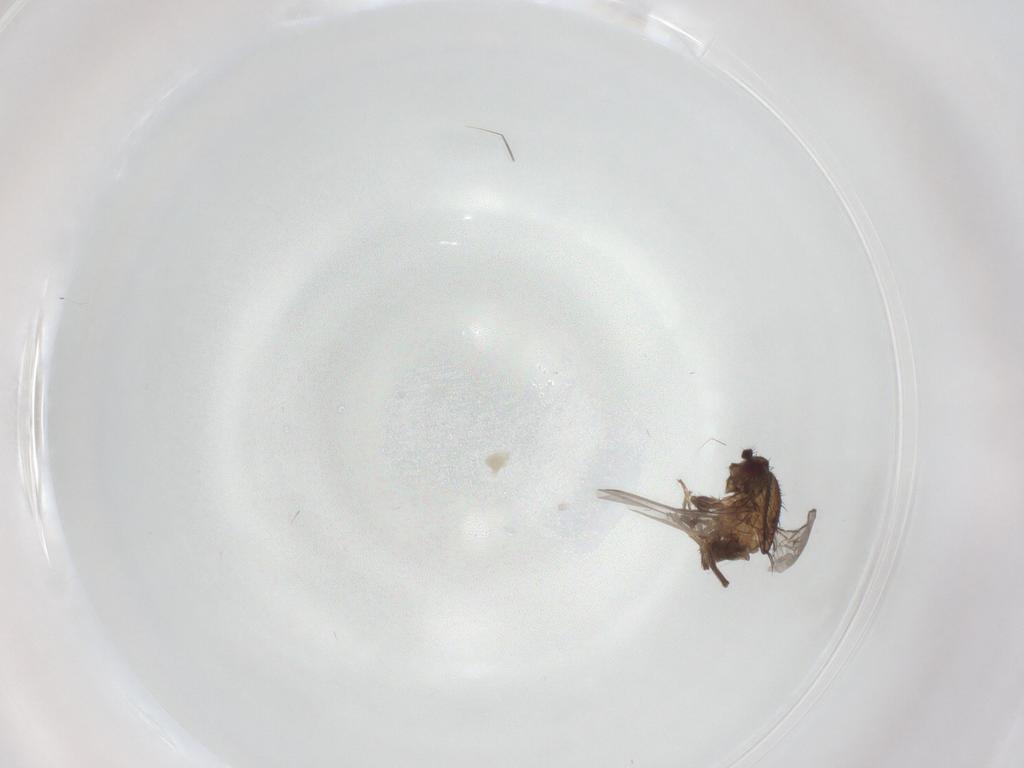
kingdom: Animalia
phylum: Arthropoda
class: Insecta
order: Diptera
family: Sphaeroceridae
